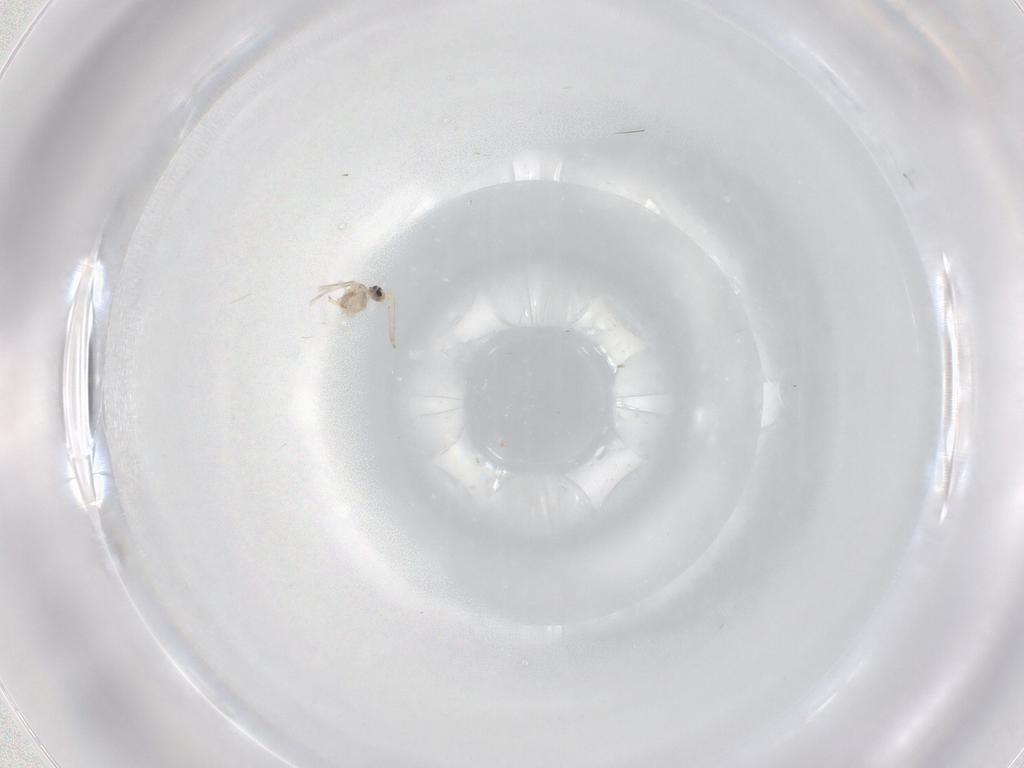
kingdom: Animalia
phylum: Arthropoda
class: Insecta
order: Diptera
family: Cecidomyiidae
